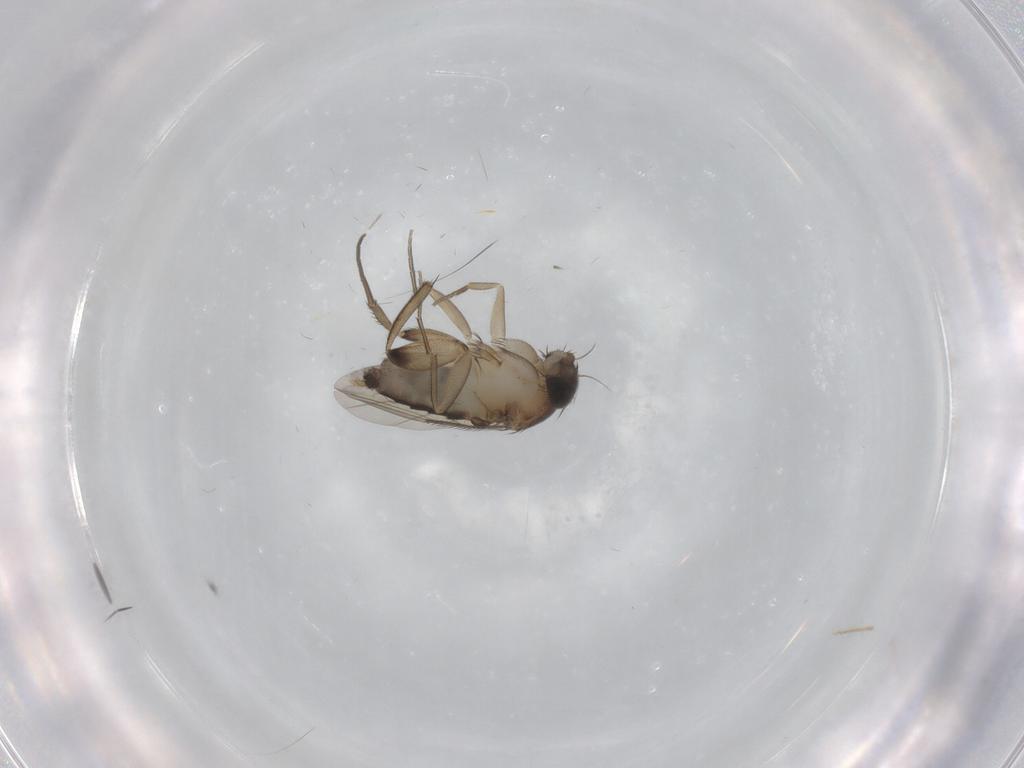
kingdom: Animalia
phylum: Arthropoda
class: Insecta
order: Diptera
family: Phoridae
